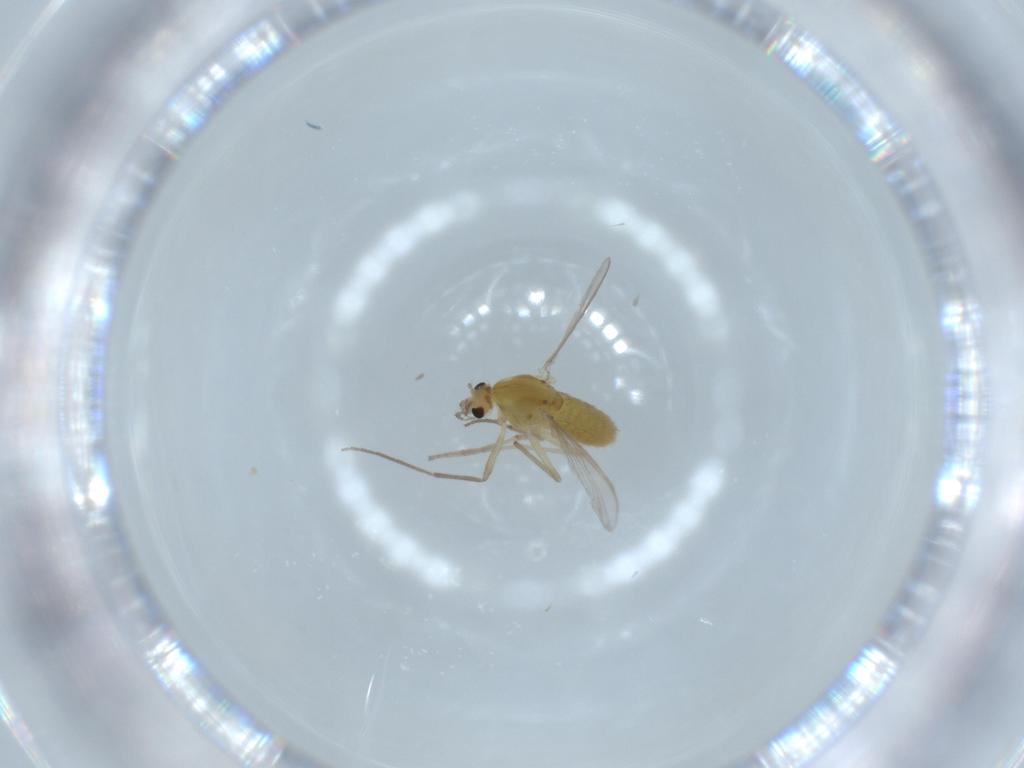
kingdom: Animalia
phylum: Arthropoda
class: Insecta
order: Diptera
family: Chironomidae
